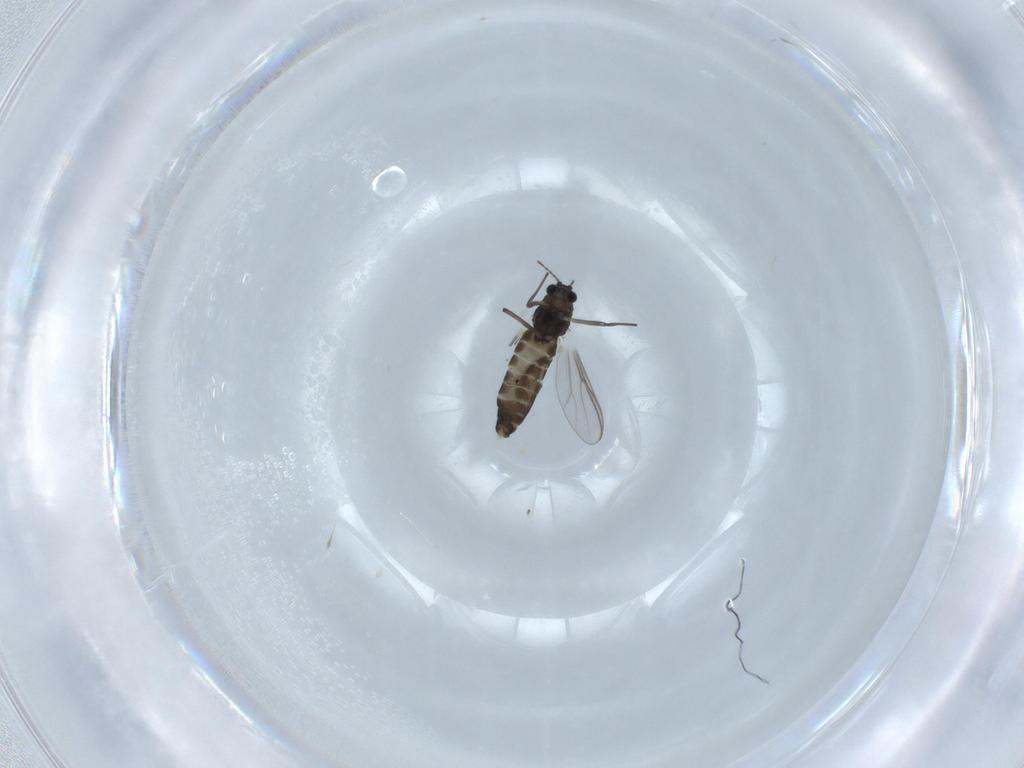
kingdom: Animalia
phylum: Arthropoda
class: Insecta
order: Diptera
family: Chironomidae
